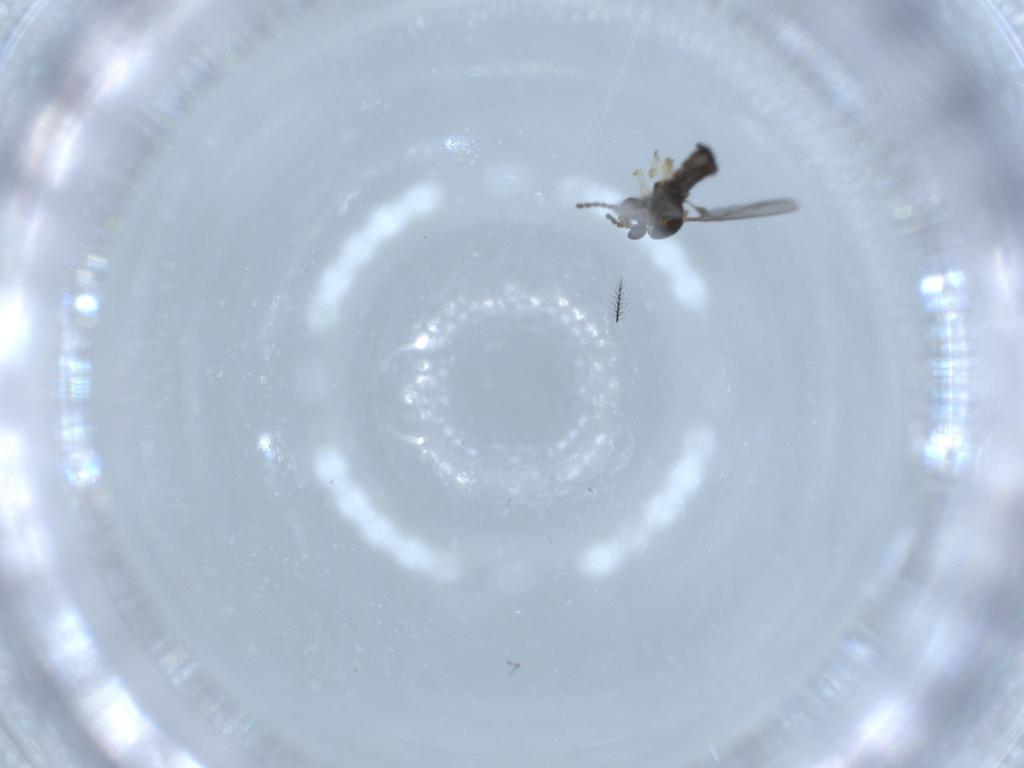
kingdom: Animalia
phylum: Arthropoda
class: Insecta
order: Diptera
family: Sciaridae
